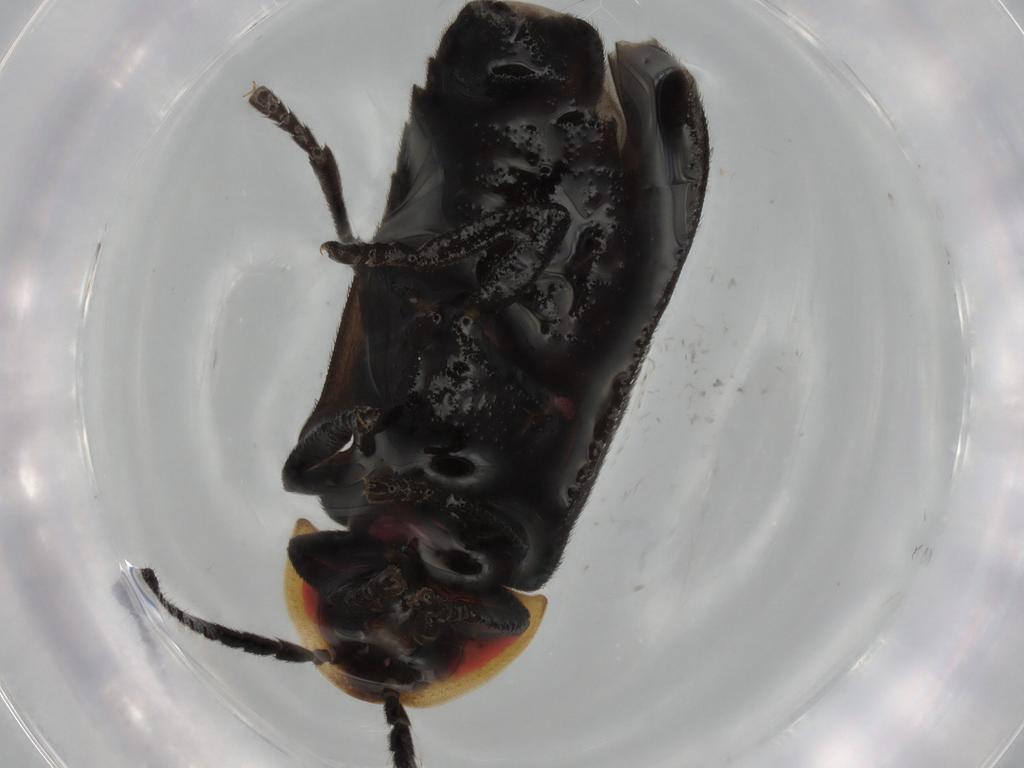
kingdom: Animalia
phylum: Arthropoda
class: Insecta
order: Coleoptera
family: Lampyridae
